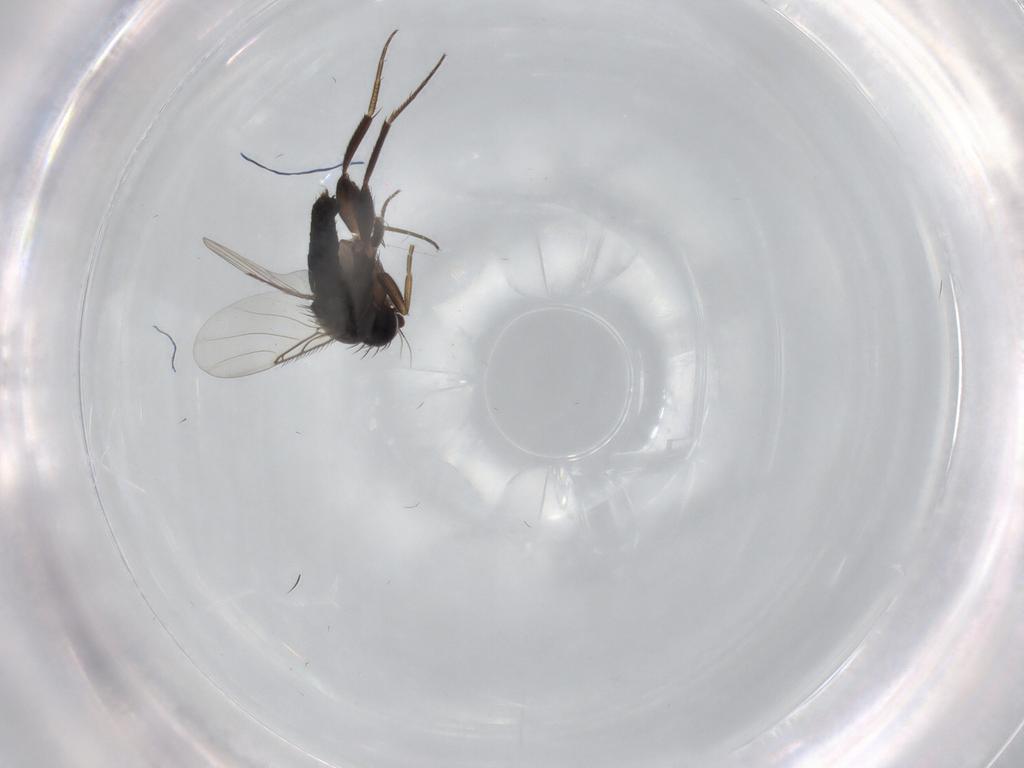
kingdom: Animalia
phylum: Arthropoda
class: Insecta
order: Diptera
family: Phoridae
